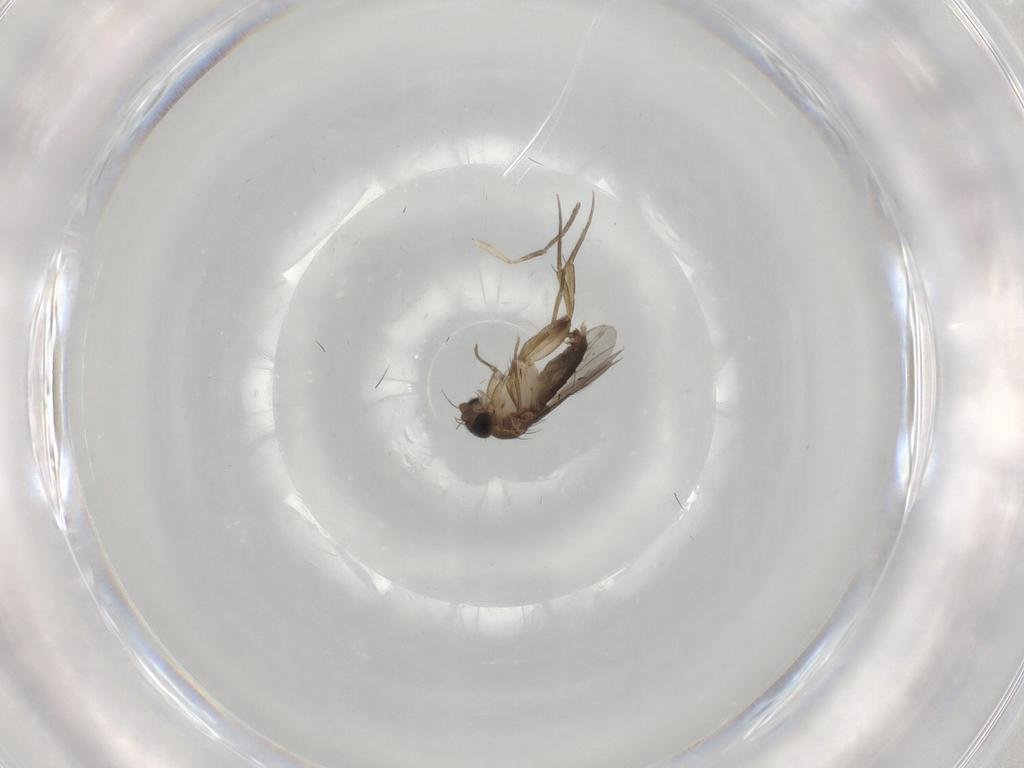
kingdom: Animalia
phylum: Arthropoda
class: Insecta
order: Diptera
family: Phoridae
